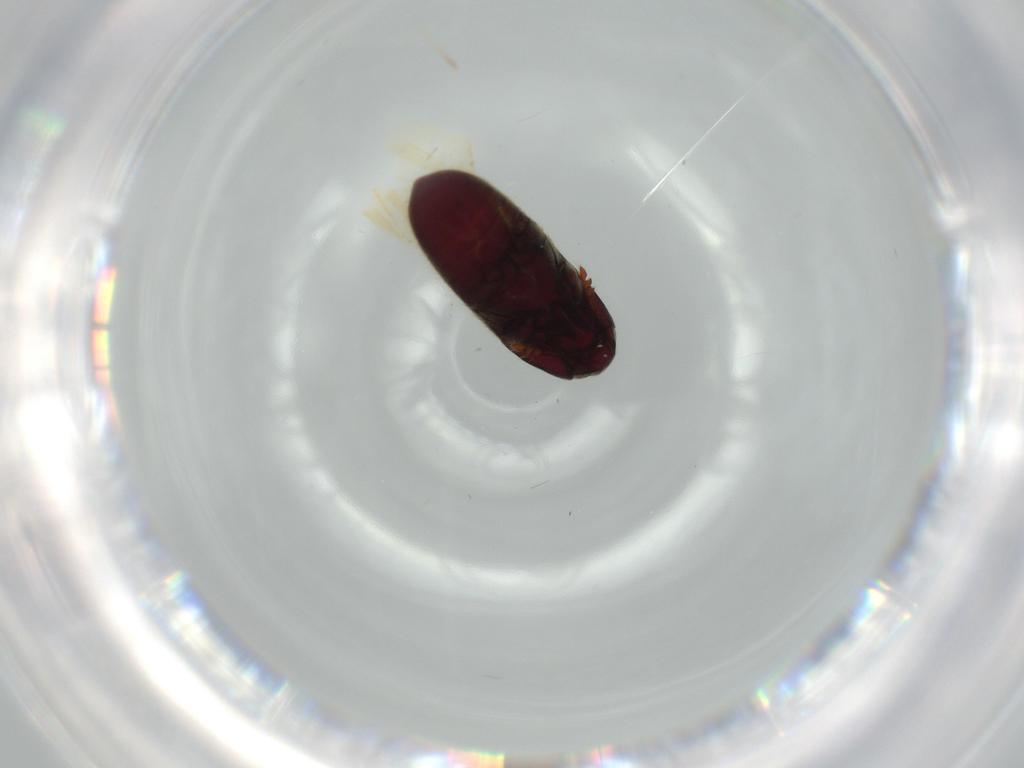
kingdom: Animalia
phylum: Arthropoda
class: Insecta
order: Coleoptera
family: Throscidae
